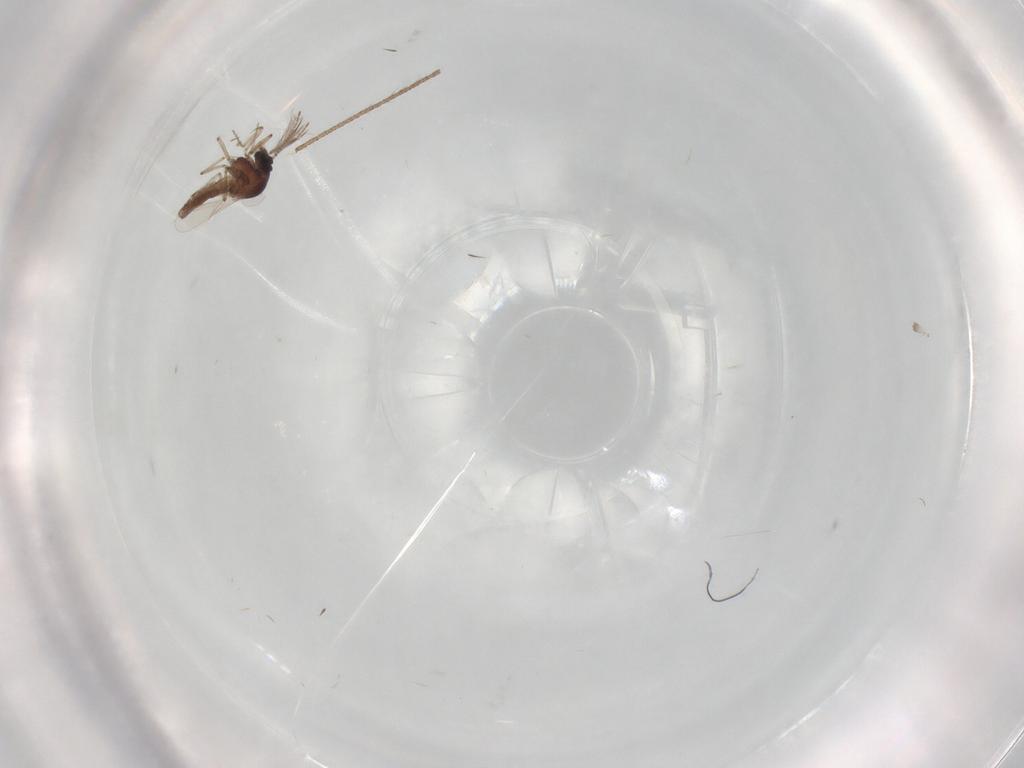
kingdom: Animalia
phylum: Arthropoda
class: Insecta
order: Diptera
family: Ceratopogonidae
